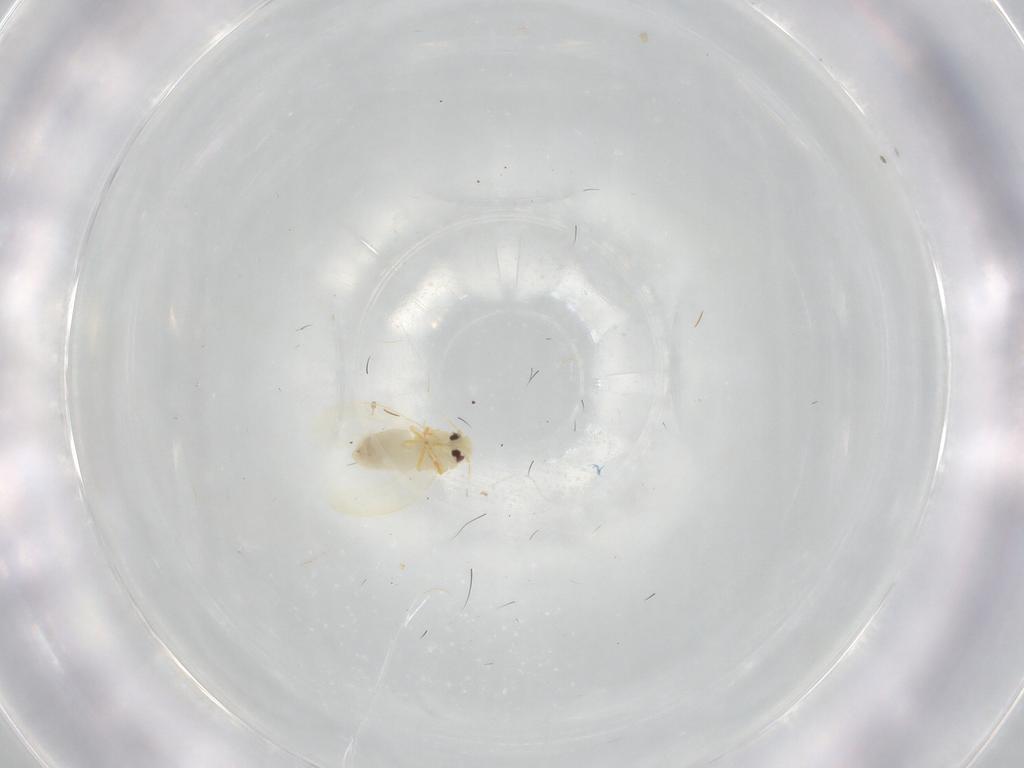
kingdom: Animalia
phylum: Arthropoda
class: Insecta
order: Hemiptera
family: Aleyrodidae
